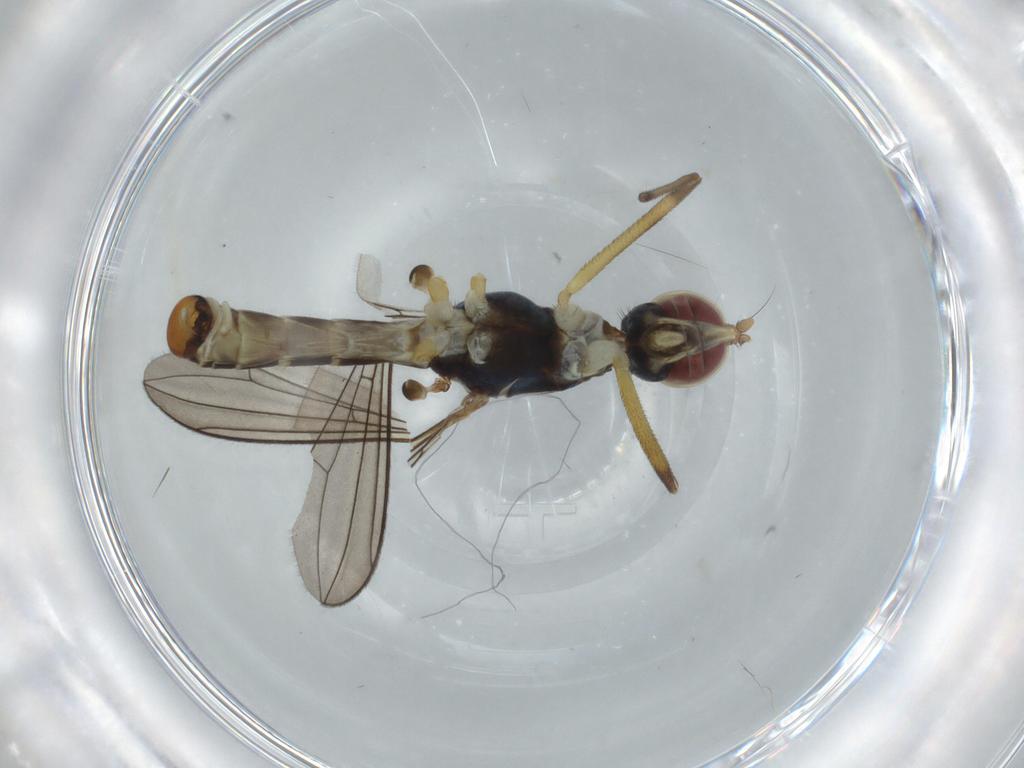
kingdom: Animalia
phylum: Arthropoda
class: Insecta
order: Diptera
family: Micropezidae
